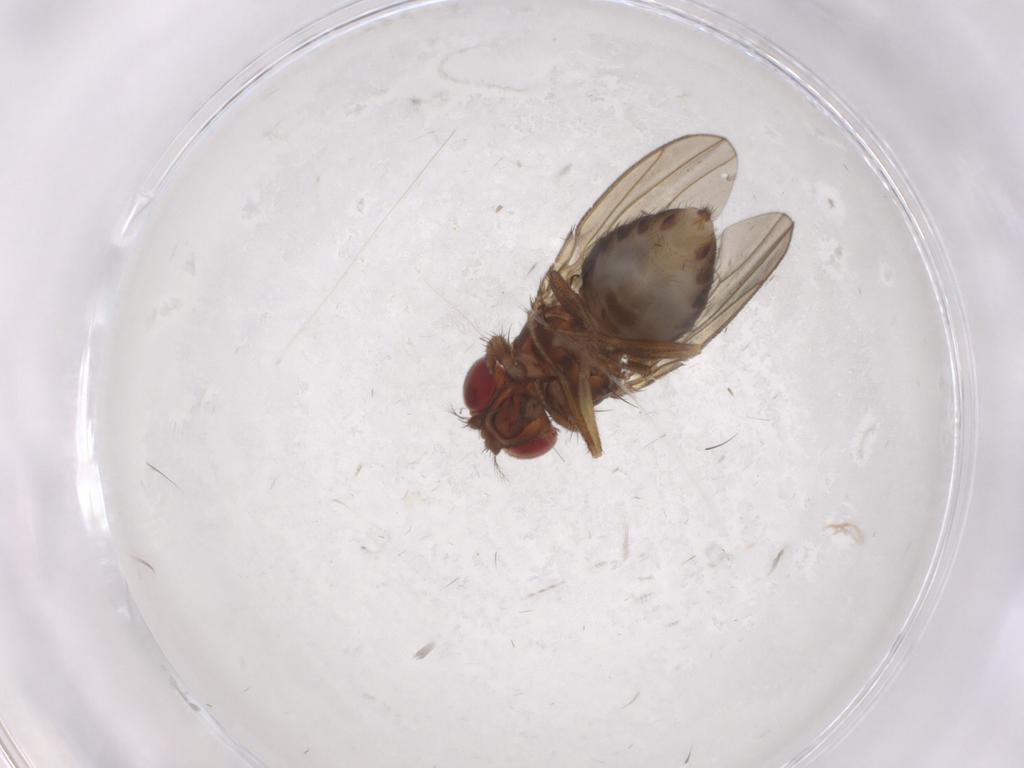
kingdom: Animalia
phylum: Arthropoda
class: Insecta
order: Diptera
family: Drosophilidae
